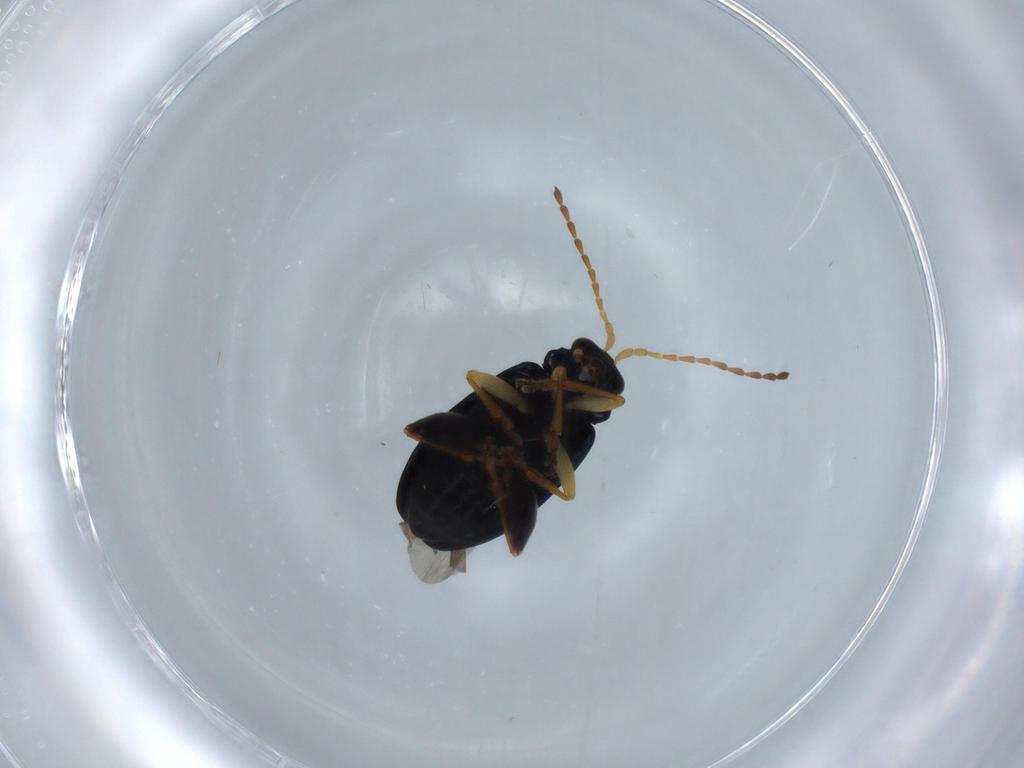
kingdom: Animalia
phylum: Arthropoda
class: Insecta
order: Coleoptera
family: Chrysomelidae
